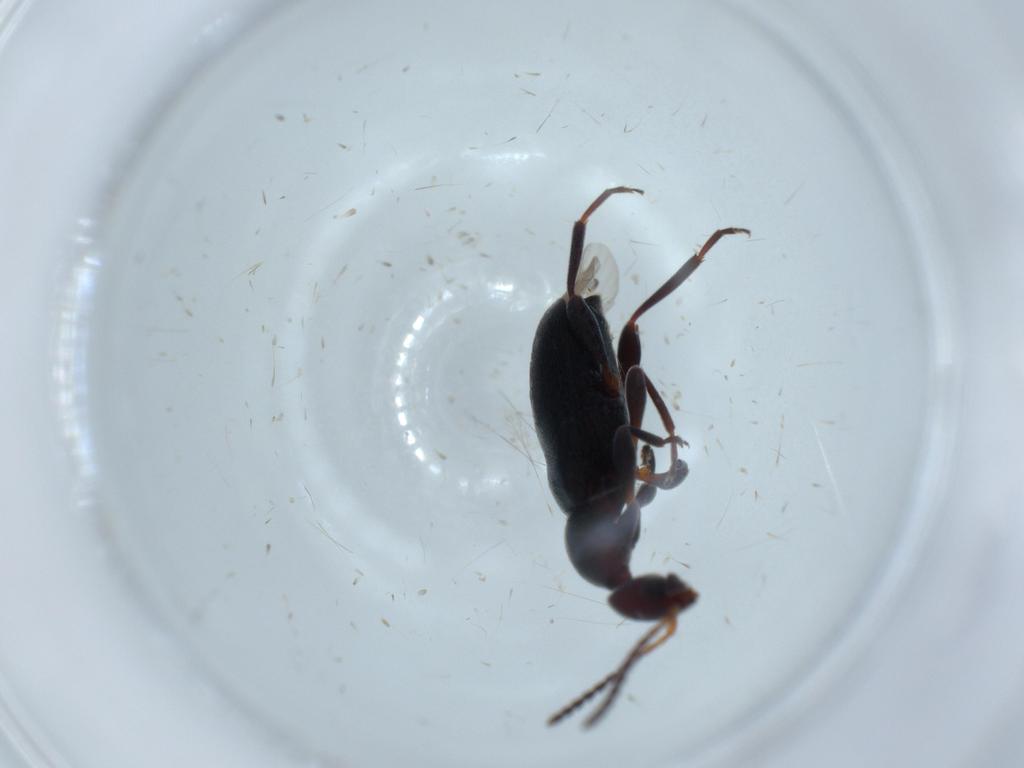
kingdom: Animalia
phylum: Arthropoda
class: Insecta
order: Coleoptera
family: Anthicidae
